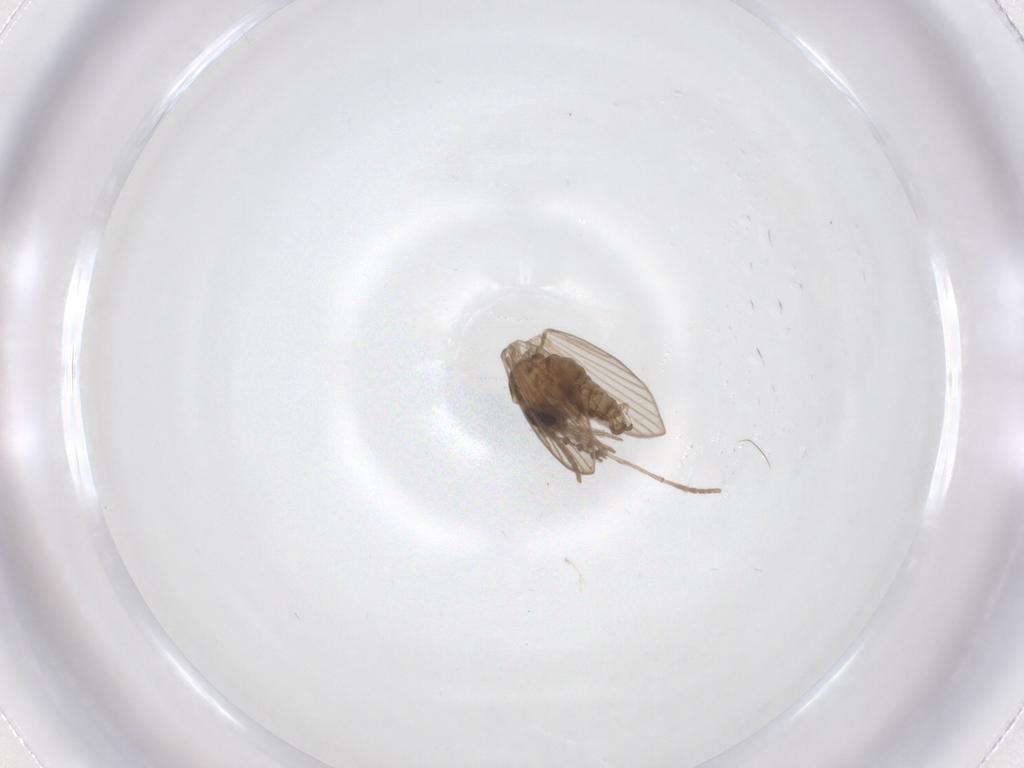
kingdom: Animalia
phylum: Arthropoda
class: Insecta
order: Diptera
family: Psychodidae
